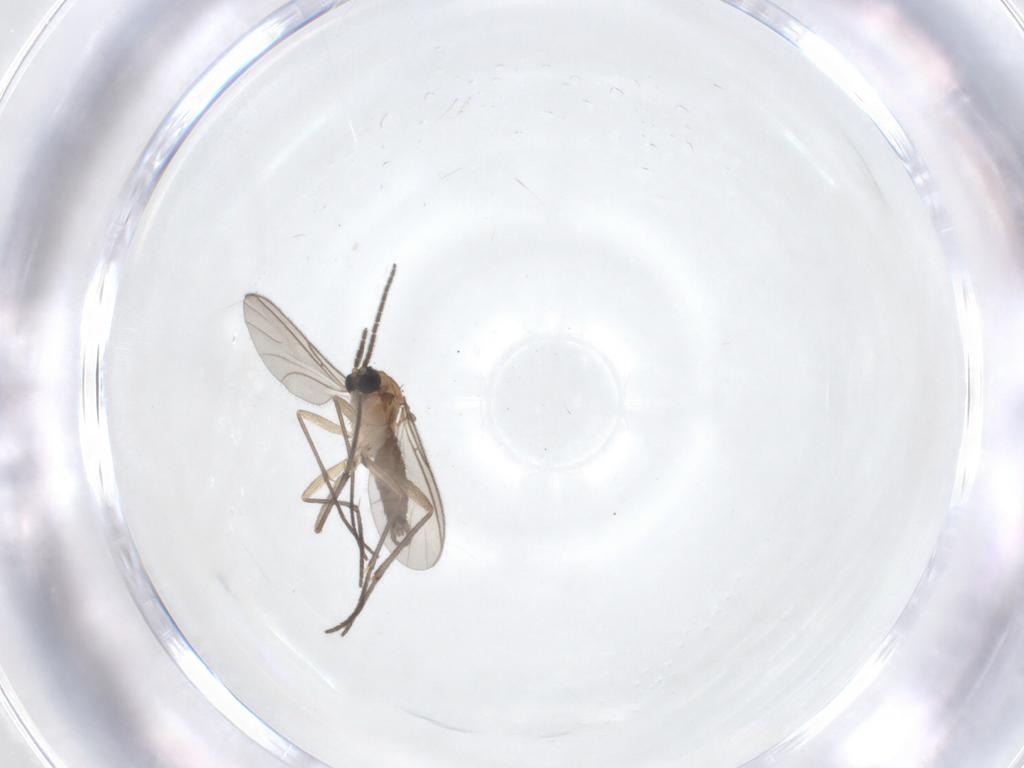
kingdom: Animalia
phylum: Arthropoda
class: Insecta
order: Diptera
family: Sciaridae
